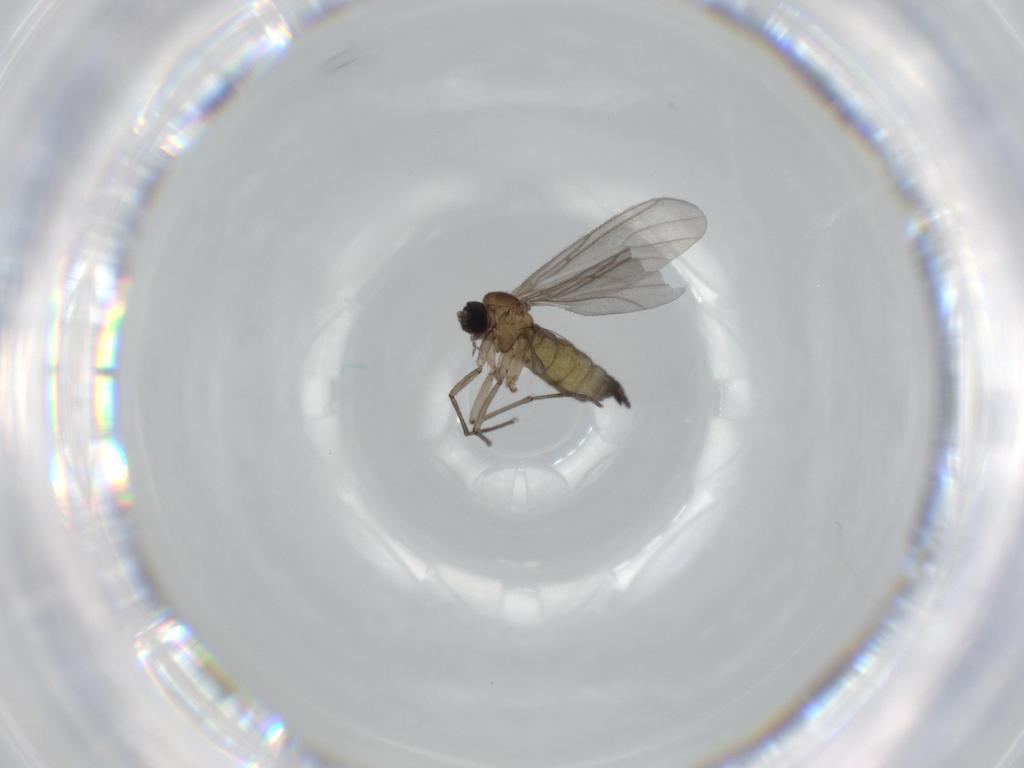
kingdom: Animalia
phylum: Arthropoda
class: Insecta
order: Diptera
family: Sciaridae
